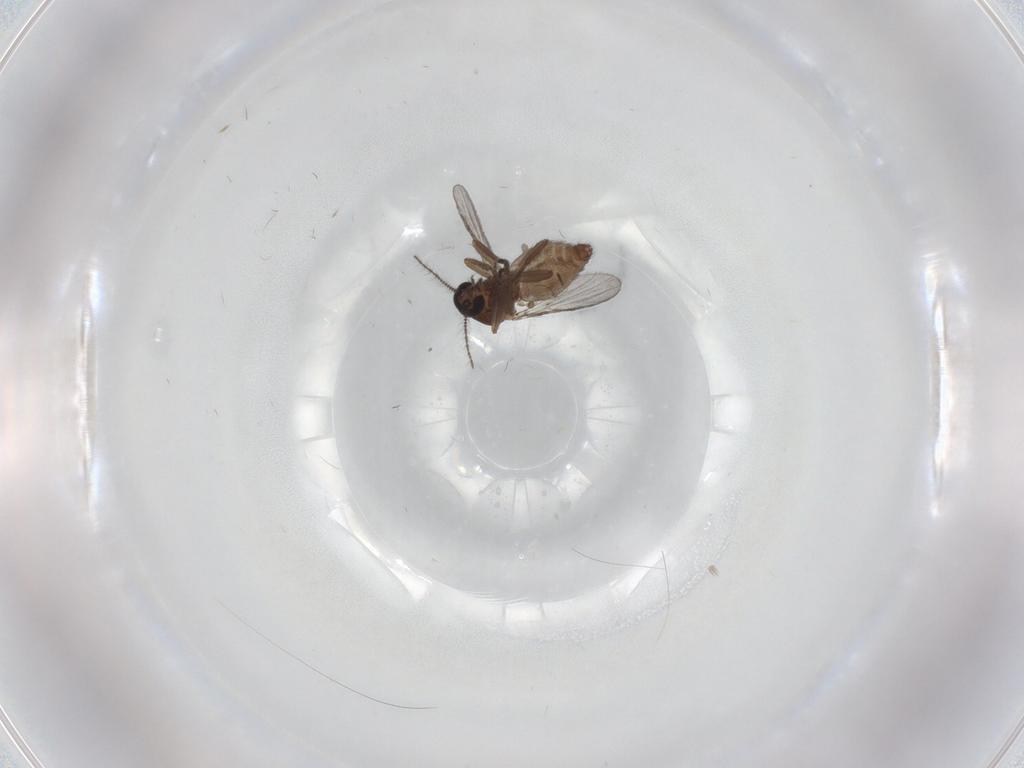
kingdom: Animalia
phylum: Arthropoda
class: Insecta
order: Diptera
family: Ceratopogonidae
